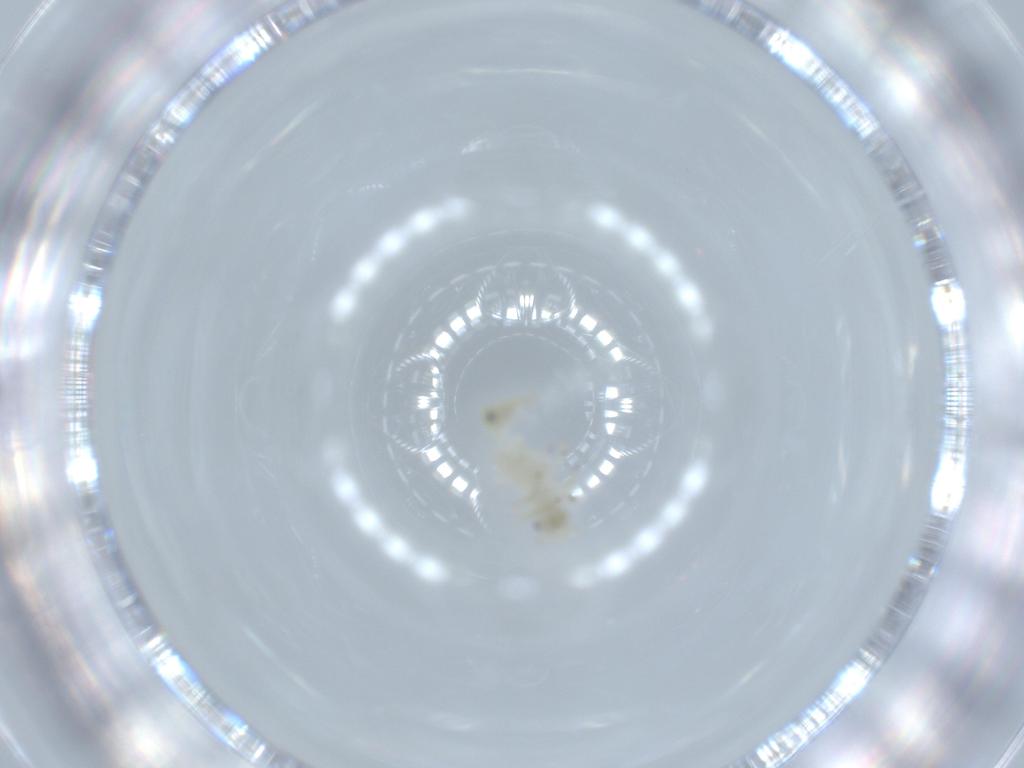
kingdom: Animalia
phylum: Arthropoda
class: Insecta
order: Psocodea
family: Caeciliusidae
